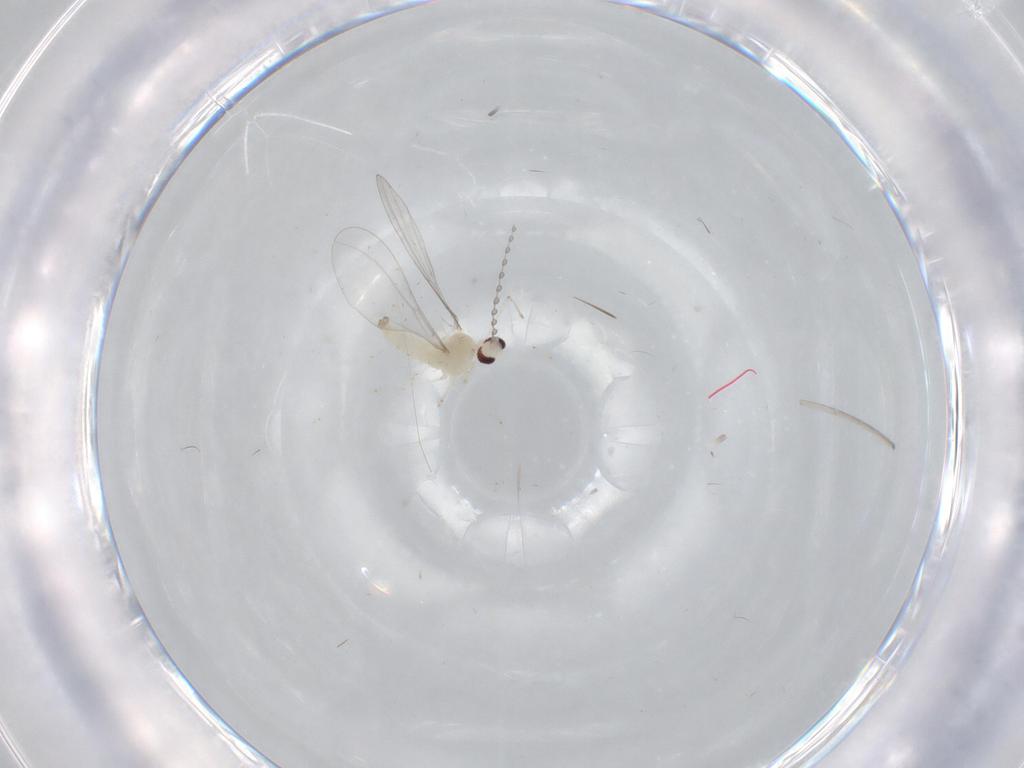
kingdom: Animalia
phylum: Arthropoda
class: Insecta
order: Diptera
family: Cecidomyiidae
